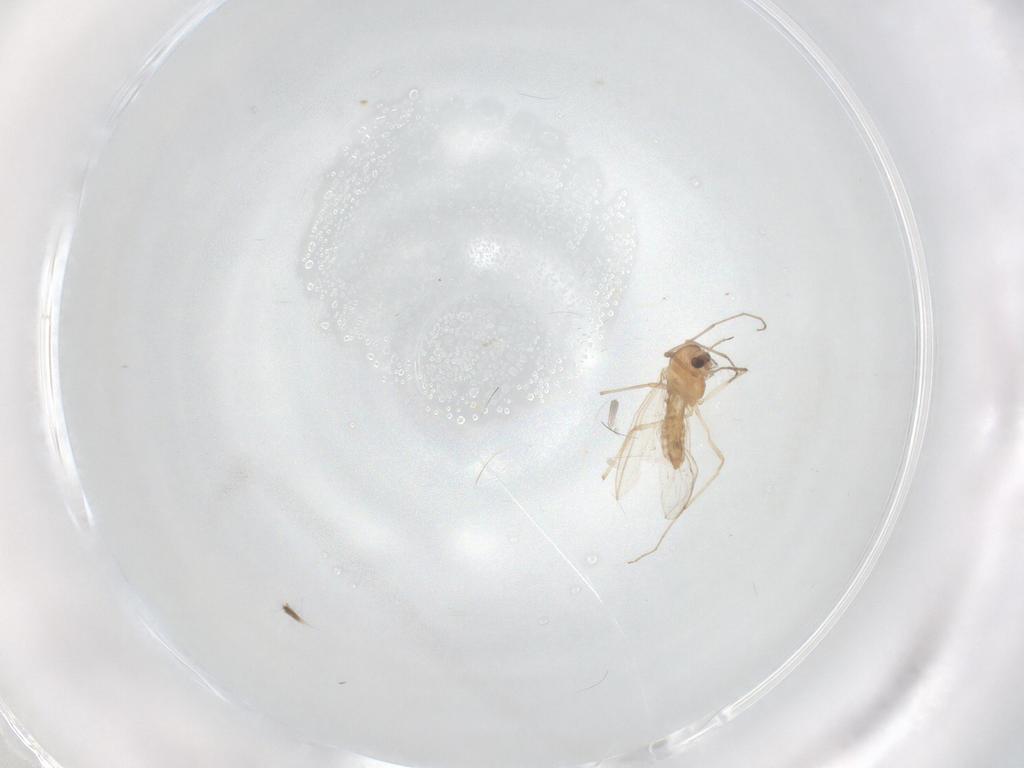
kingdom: Animalia
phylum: Arthropoda
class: Insecta
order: Diptera
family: Chironomidae
